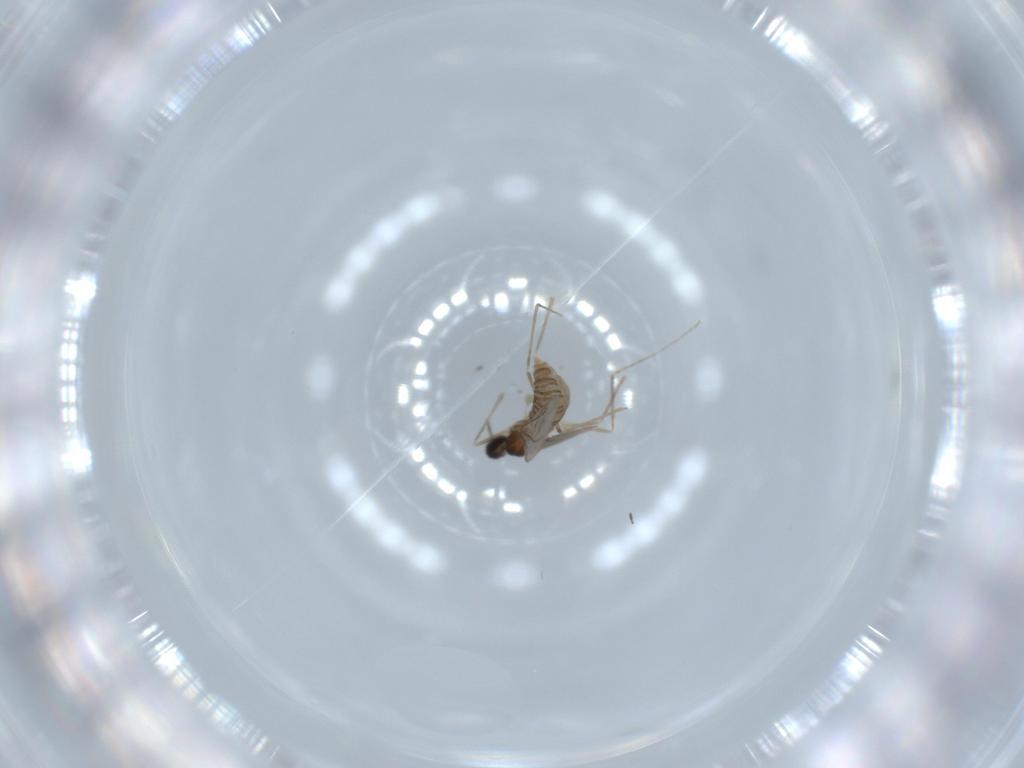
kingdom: Animalia
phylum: Arthropoda
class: Insecta
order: Diptera
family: Cecidomyiidae
